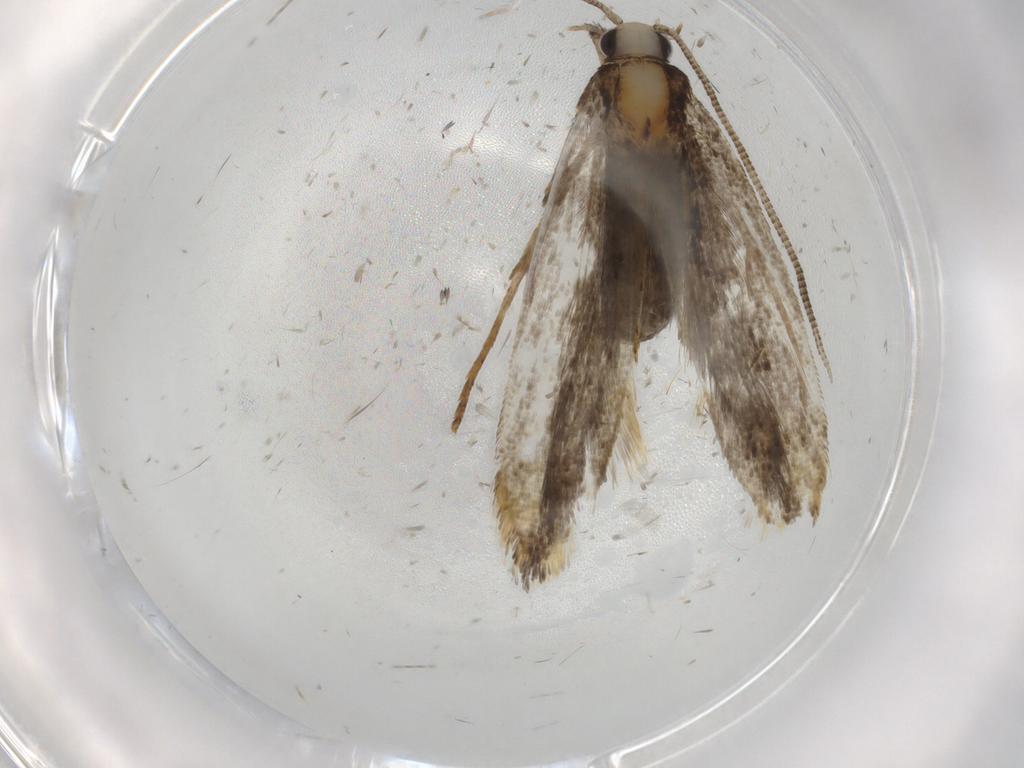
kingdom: Animalia
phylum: Arthropoda
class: Insecta
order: Lepidoptera
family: Tineidae
